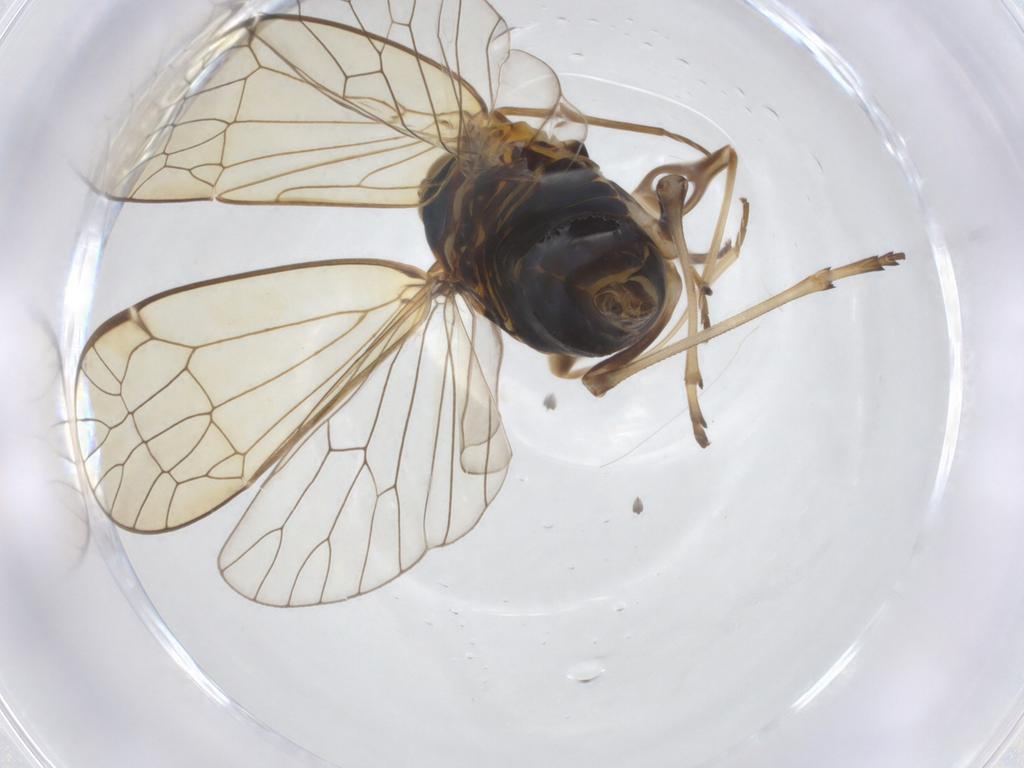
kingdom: Animalia
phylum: Arthropoda
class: Insecta
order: Hemiptera
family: Kinnaridae
